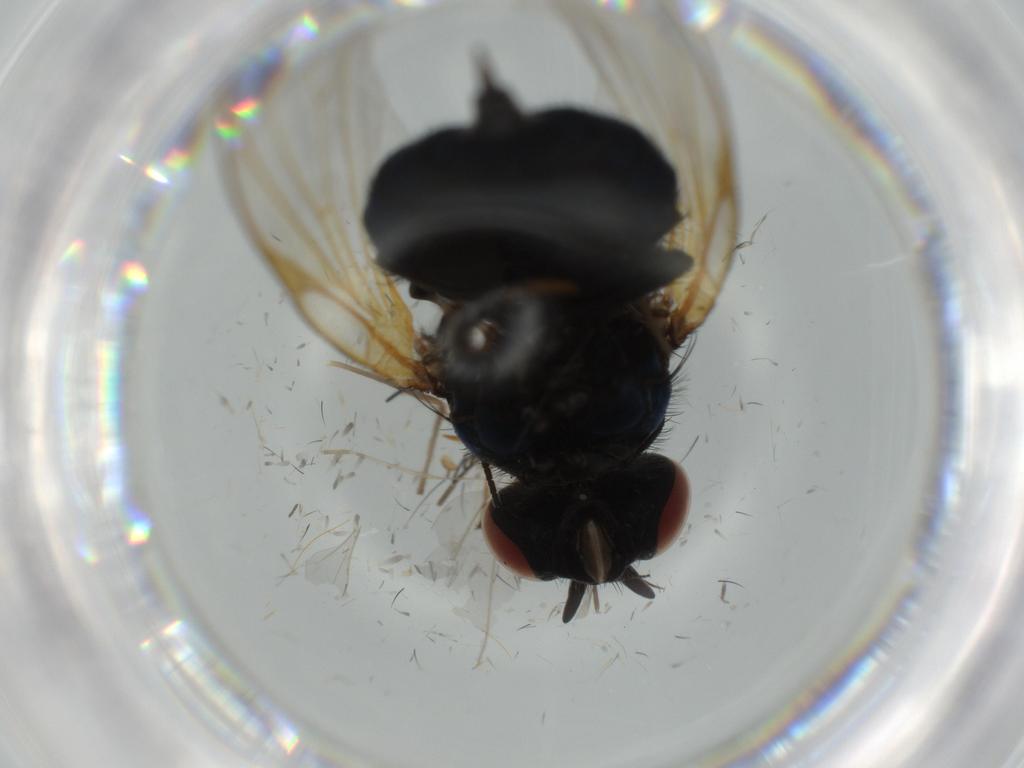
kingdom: Animalia
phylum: Arthropoda
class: Insecta
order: Diptera
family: Lonchaeidae
